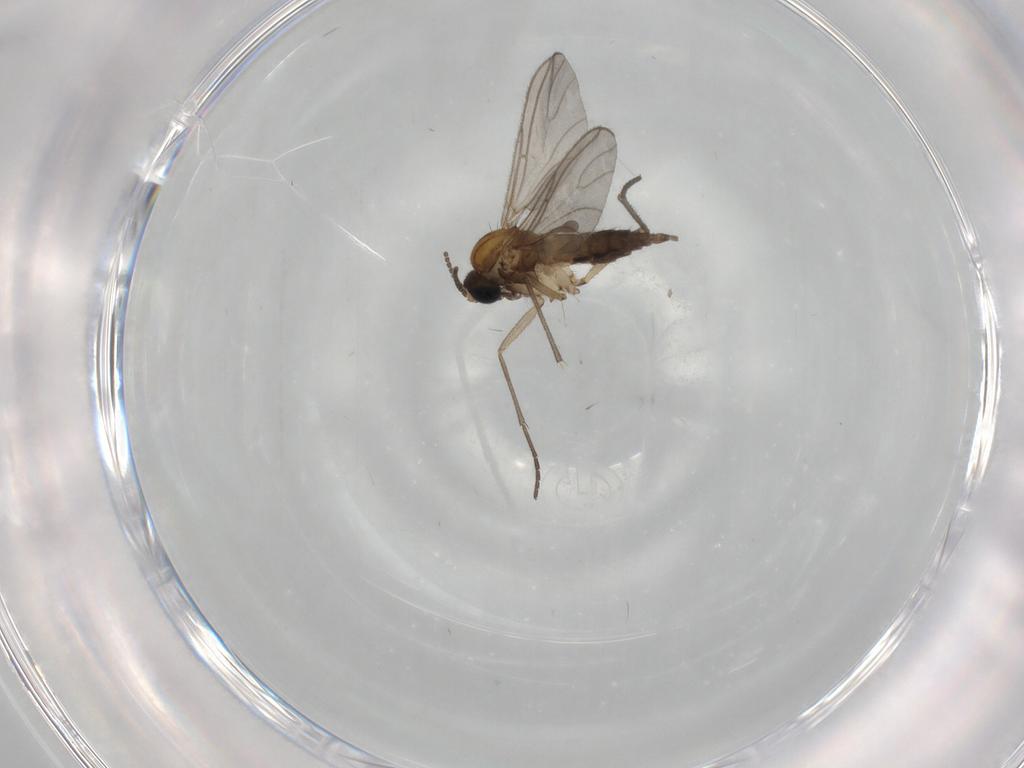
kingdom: Animalia
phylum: Arthropoda
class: Insecta
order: Diptera
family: Sciaridae
